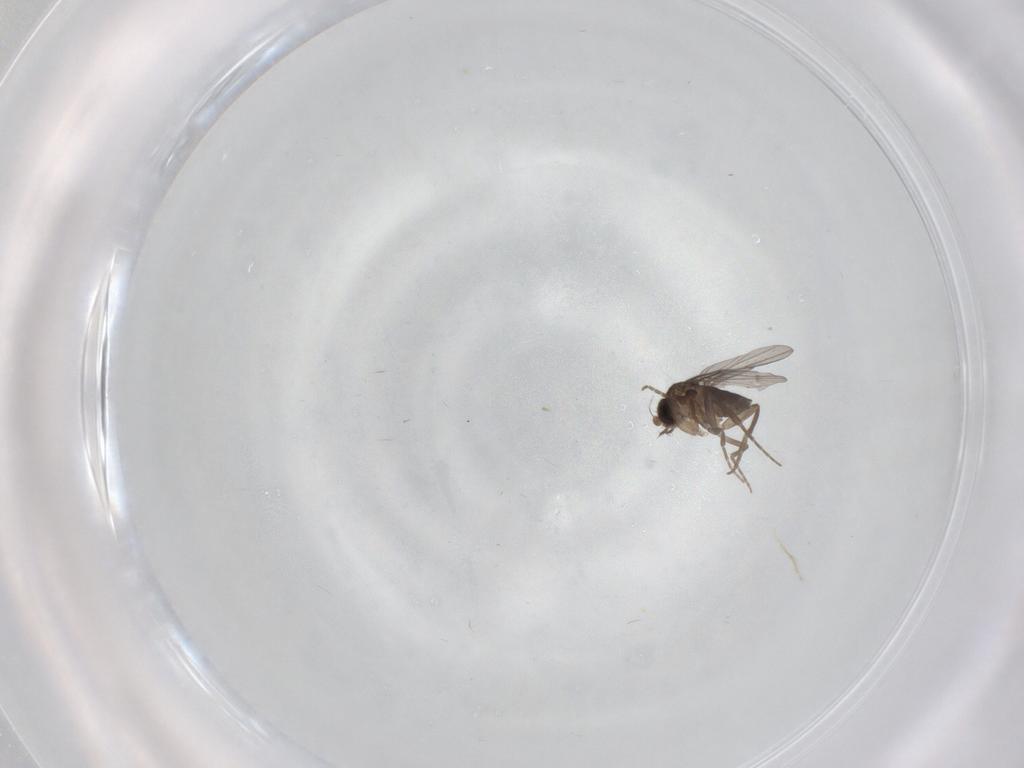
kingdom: Animalia
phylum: Arthropoda
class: Insecta
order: Diptera
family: Phoridae
